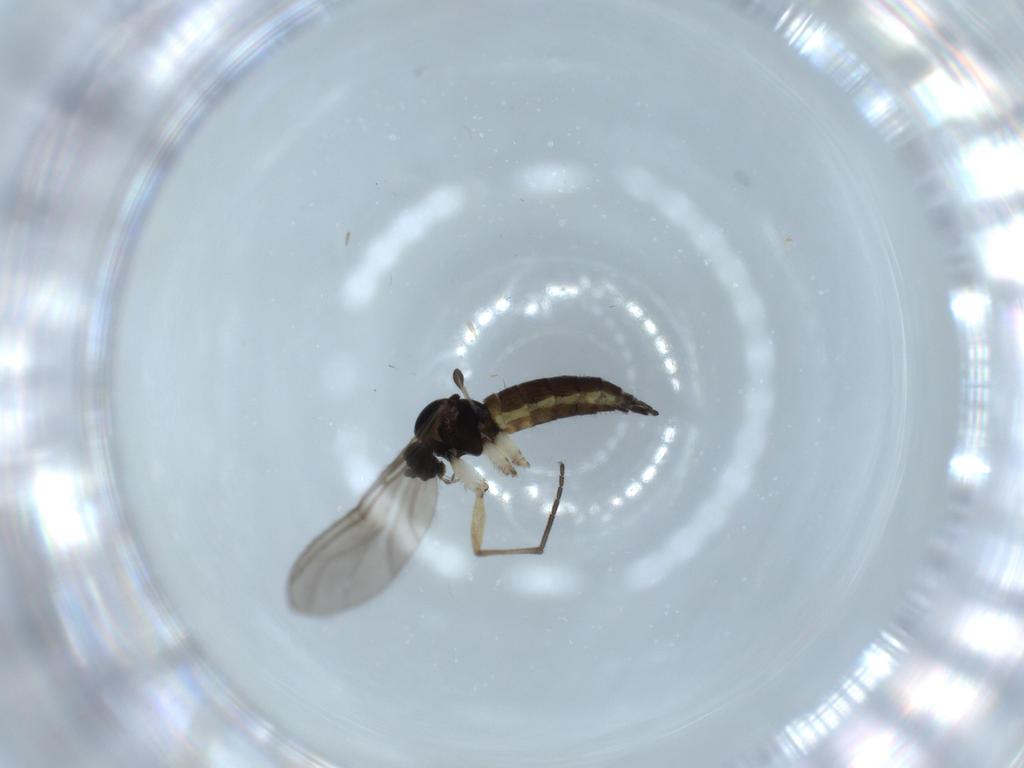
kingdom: Animalia
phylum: Arthropoda
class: Insecta
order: Diptera
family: Sciaridae
